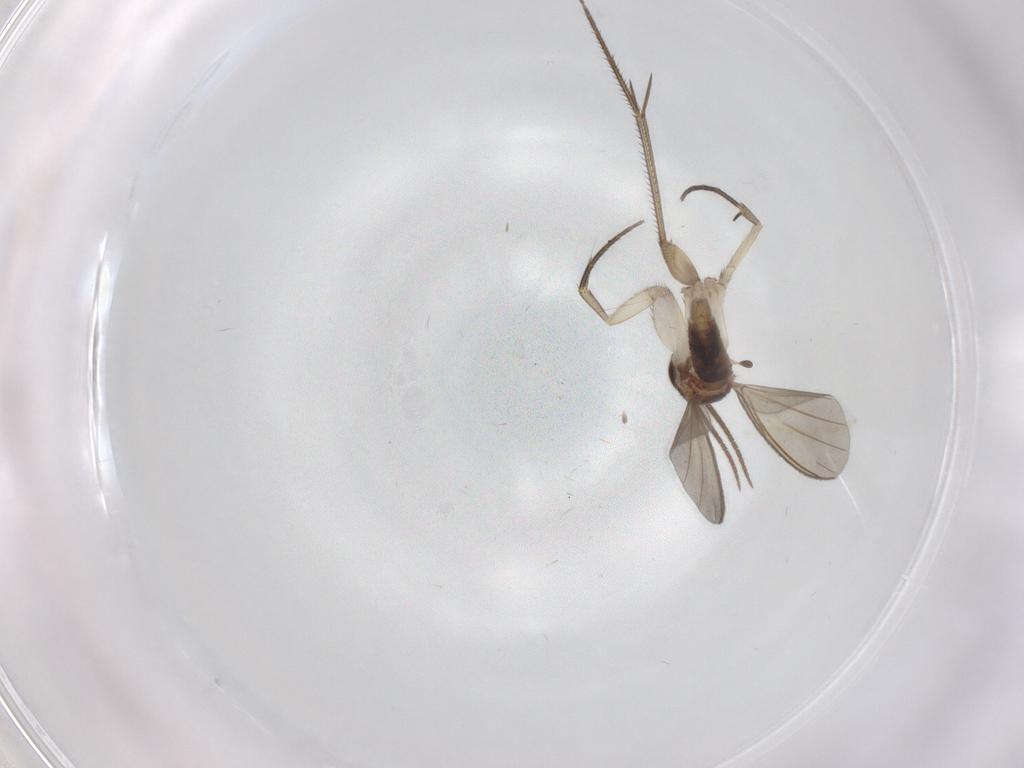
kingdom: Animalia
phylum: Arthropoda
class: Insecta
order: Diptera
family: Mycetophilidae
